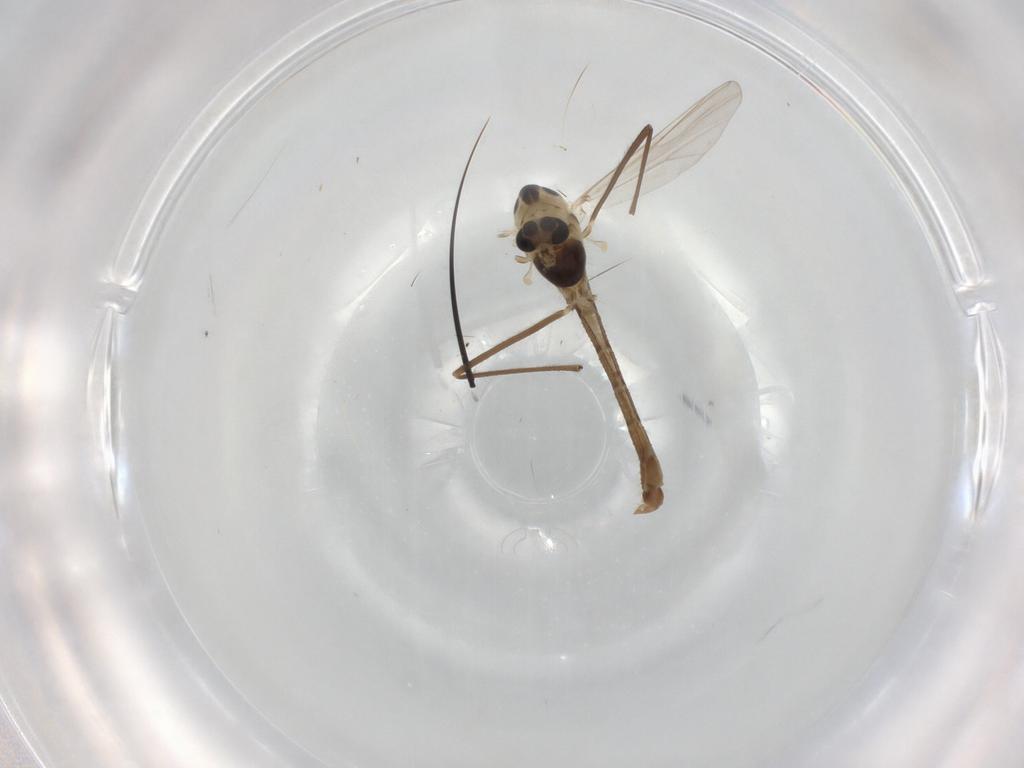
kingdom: Animalia
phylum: Arthropoda
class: Insecta
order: Diptera
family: Chironomidae
